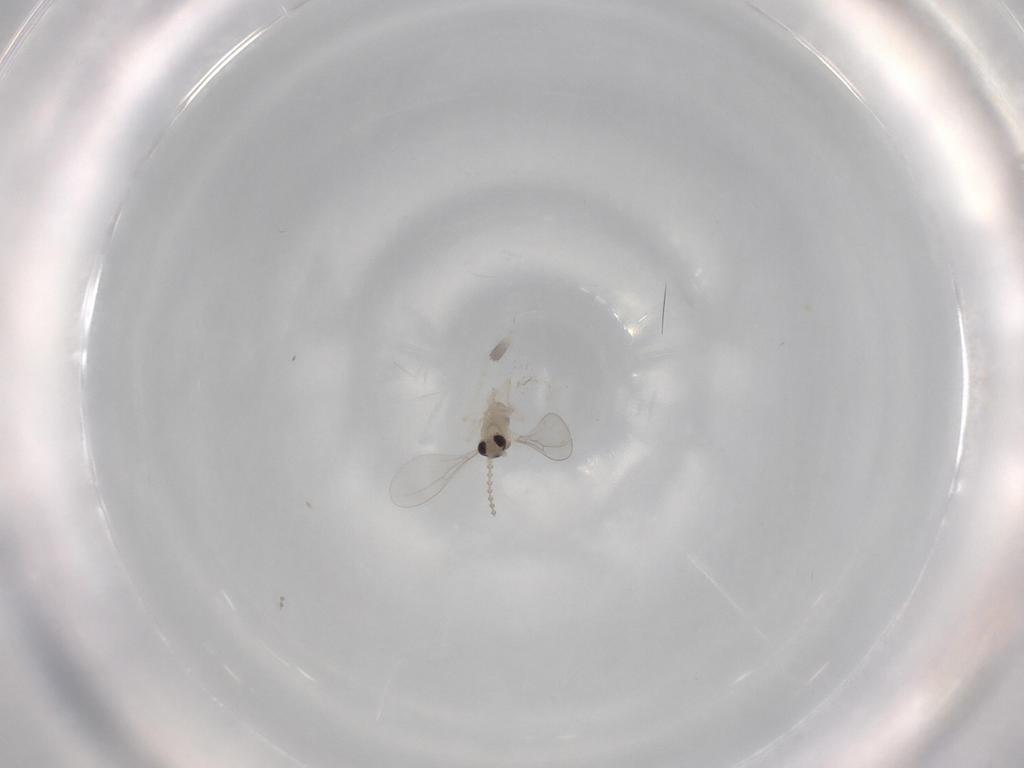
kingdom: Animalia
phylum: Arthropoda
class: Insecta
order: Diptera
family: Cecidomyiidae
